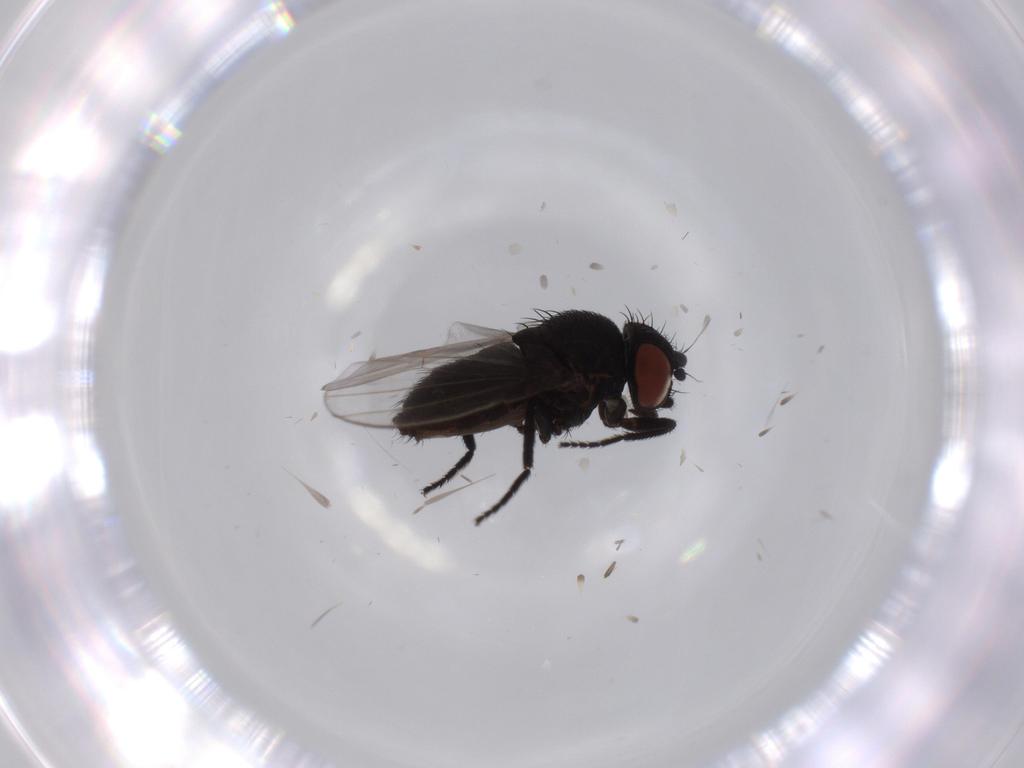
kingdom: Animalia
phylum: Arthropoda
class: Insecta
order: Diptera
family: Milichiidae
